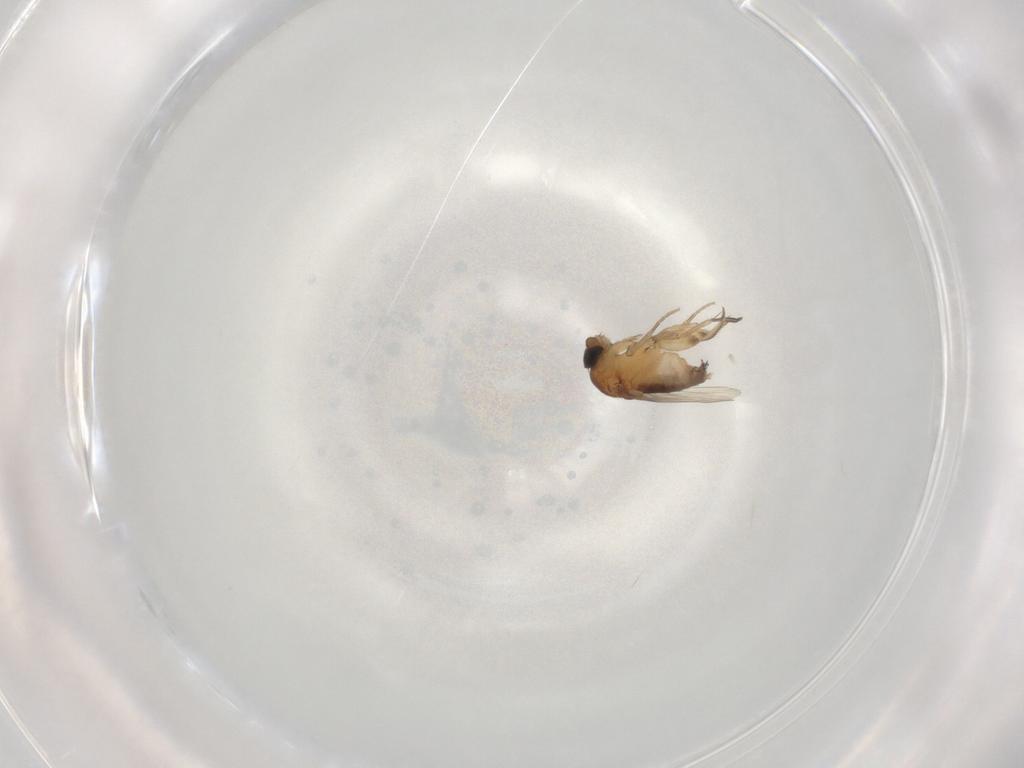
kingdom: Animalia
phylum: Arthropoda
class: Insecta
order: Diptera
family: Phoridae
